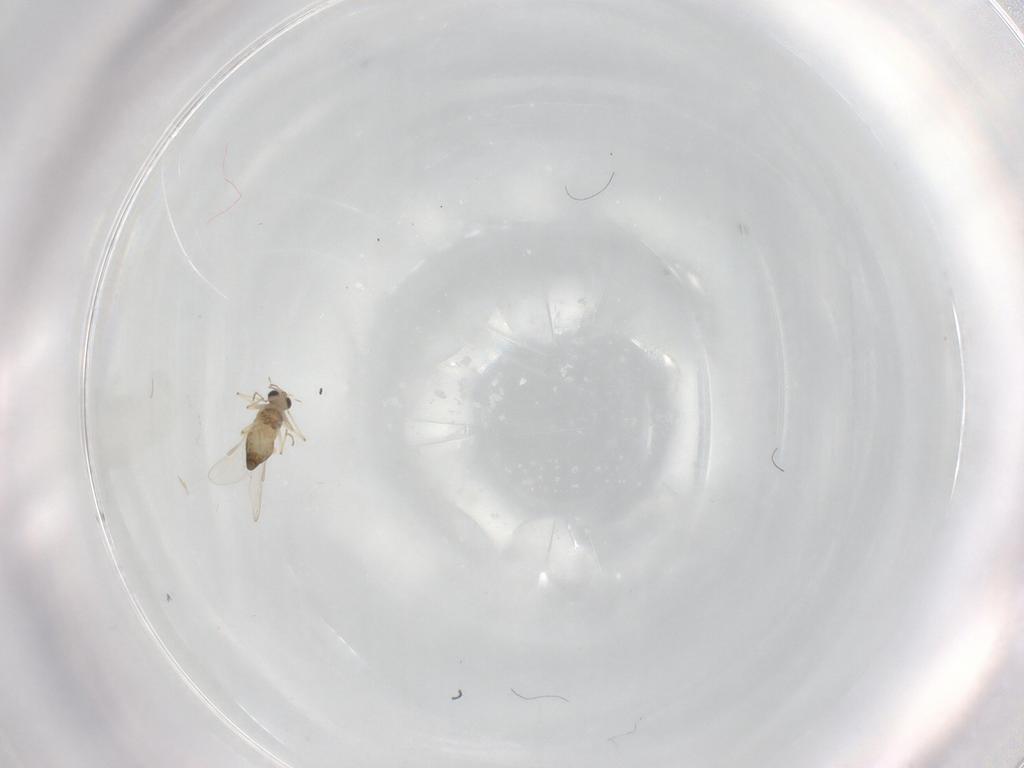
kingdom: Animalia
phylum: Arthropoda
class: Insecta
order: Diptera
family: Chironomidae
